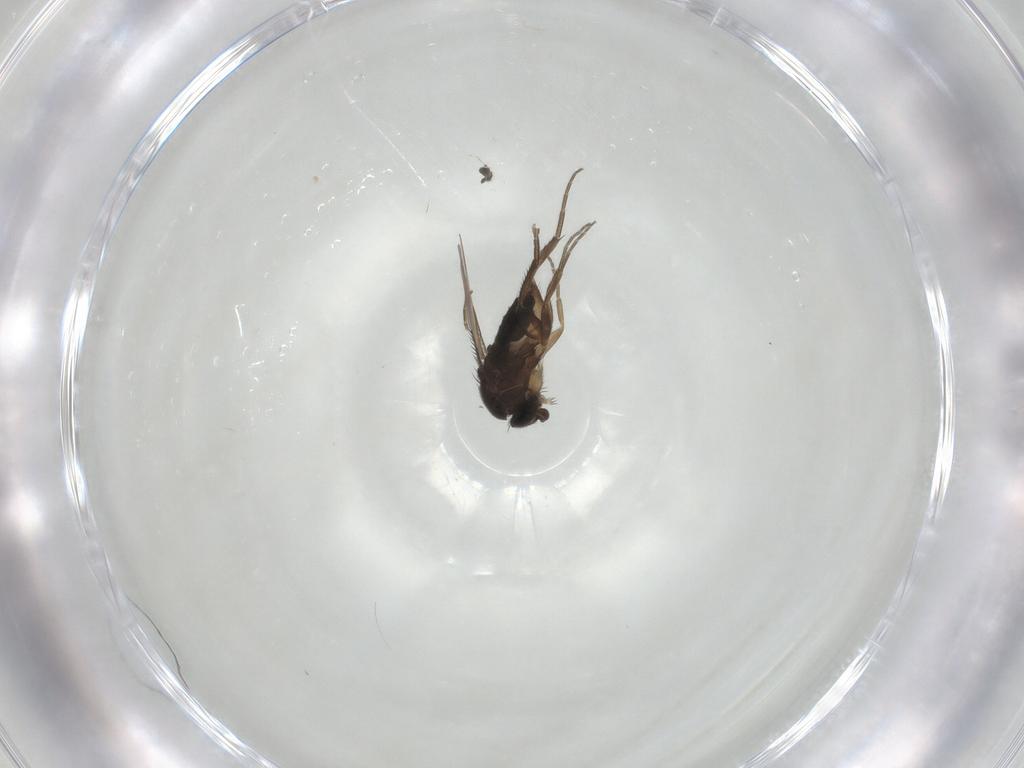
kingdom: Animalia
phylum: Arthropoda
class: Insecta
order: Diptera
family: Phoridae
